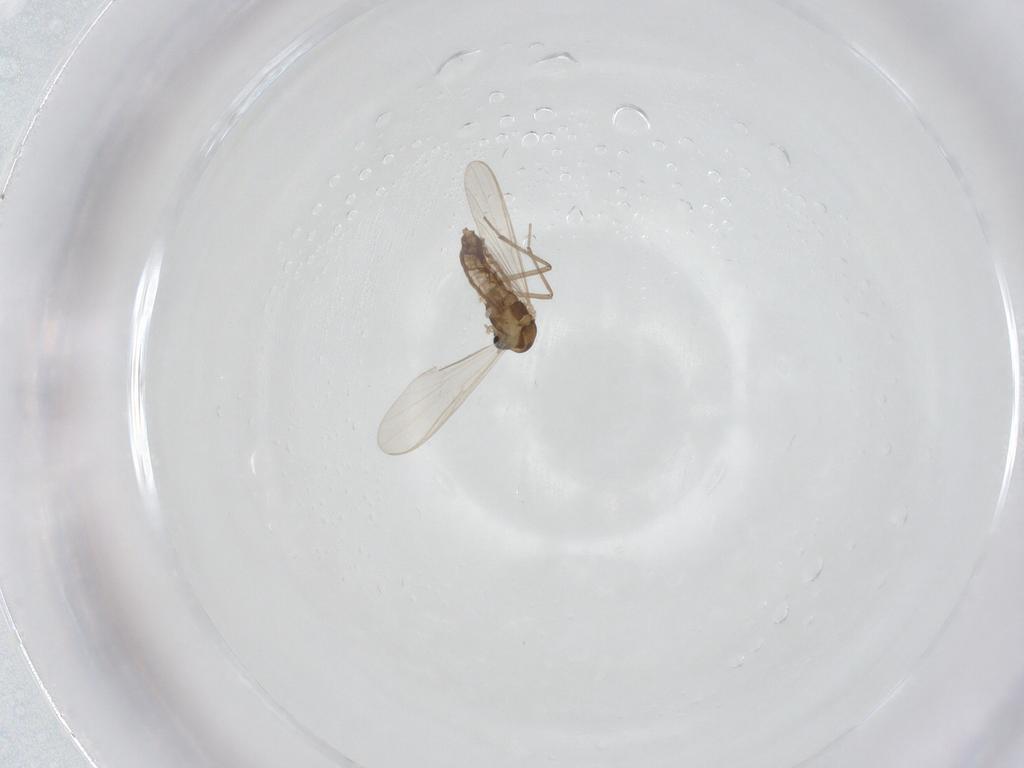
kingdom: Animalia
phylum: Arthropoda
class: Insecta
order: Diptera
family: Chironomidae
